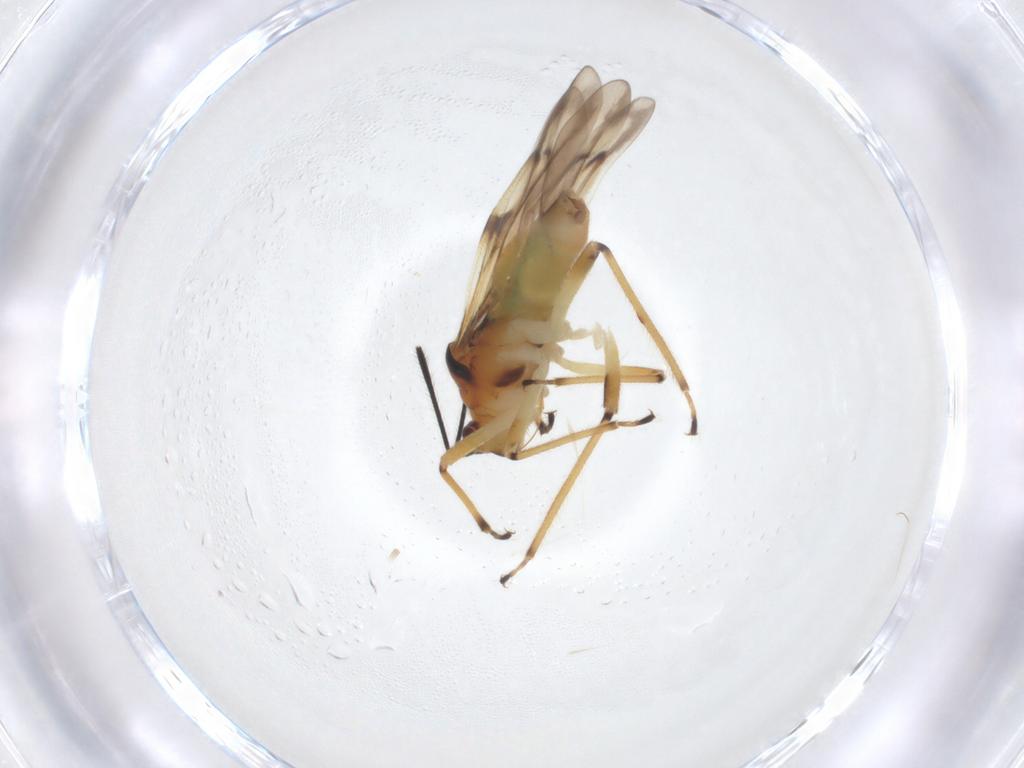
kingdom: Animalia
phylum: Arthropoda
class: Insecta
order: Hemiptera
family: Miridae
